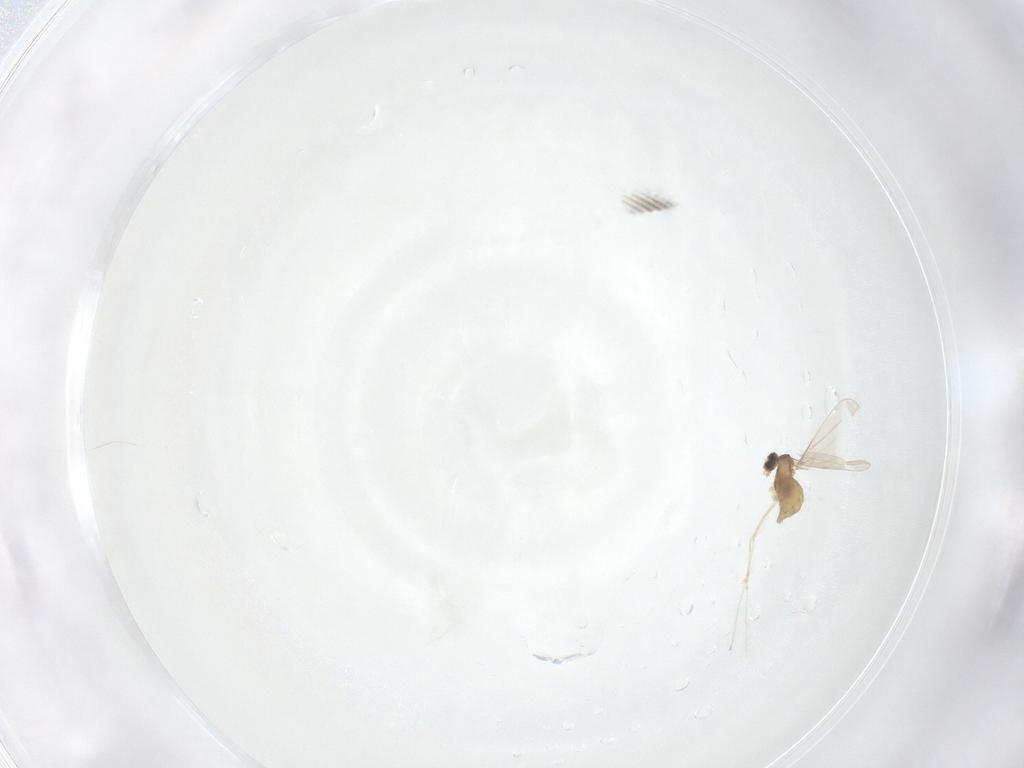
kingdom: Animalia
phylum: Arthropoda
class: Insecta
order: Diptera
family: Cecidomyiidae
